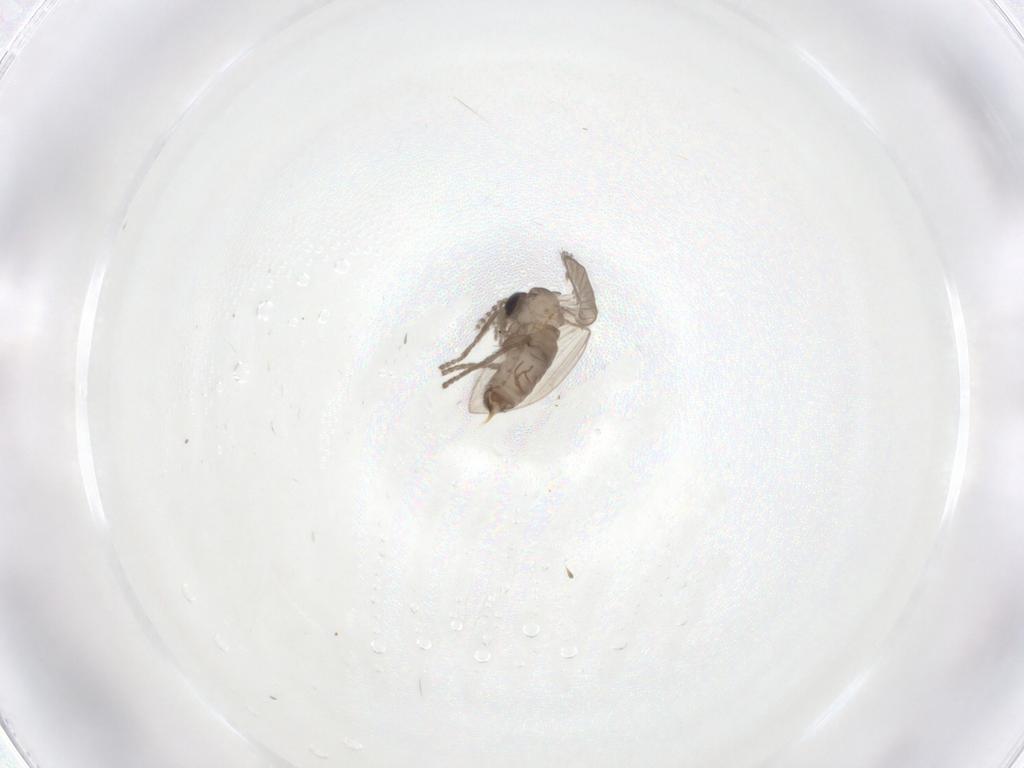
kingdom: Animalia
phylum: Arthropoda
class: Insecta
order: Diptera
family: Psychodidae
